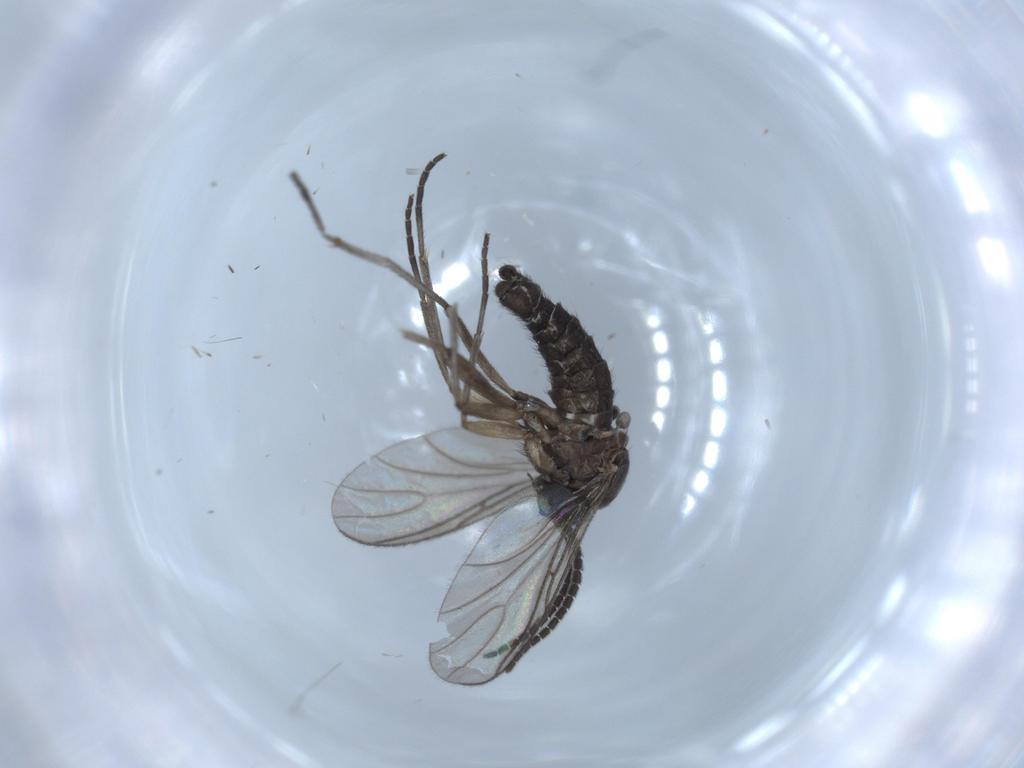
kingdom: Animalia
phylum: Arthropoda
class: Insecta
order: Diptera
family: Sciaridae
